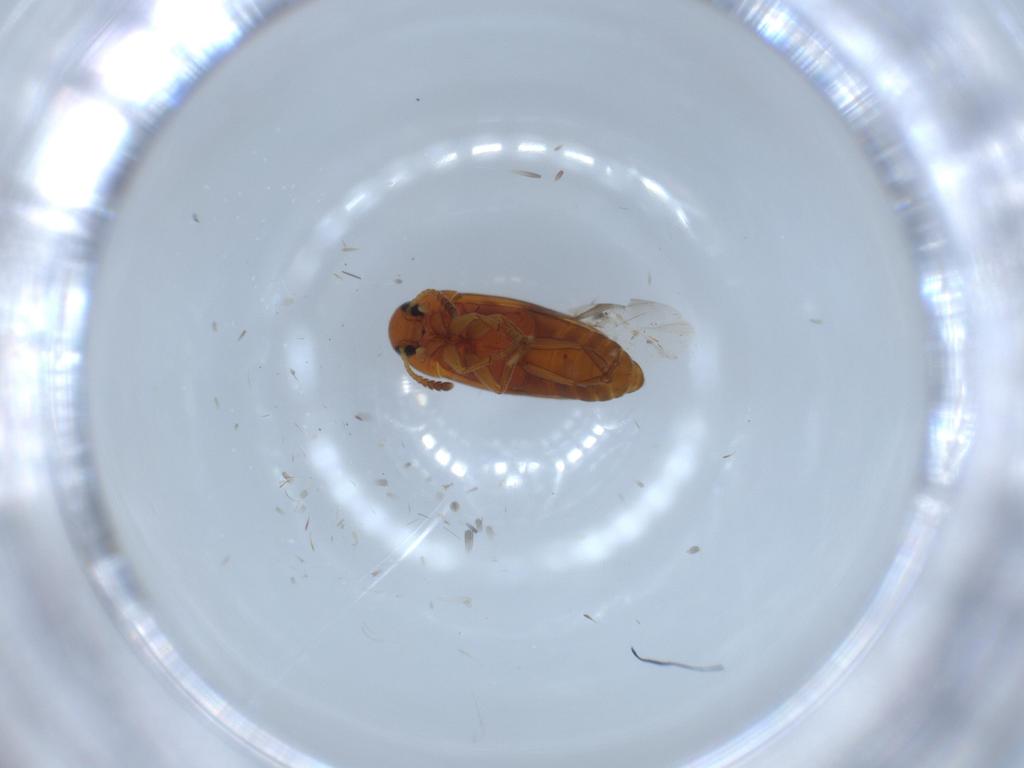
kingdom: Animalia
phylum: Arthropoda
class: Insecta
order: Coleoptera
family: Scraptiidae
